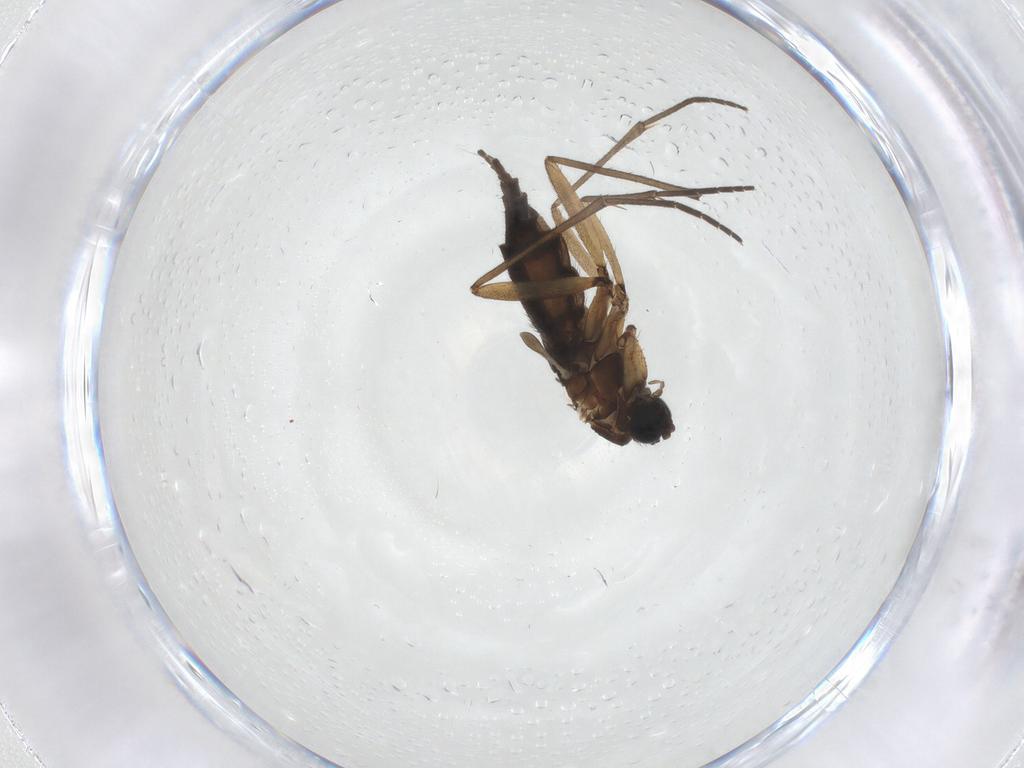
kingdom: Animalia
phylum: Arthropoda
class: Insecta
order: Diptera
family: Sciaridae
